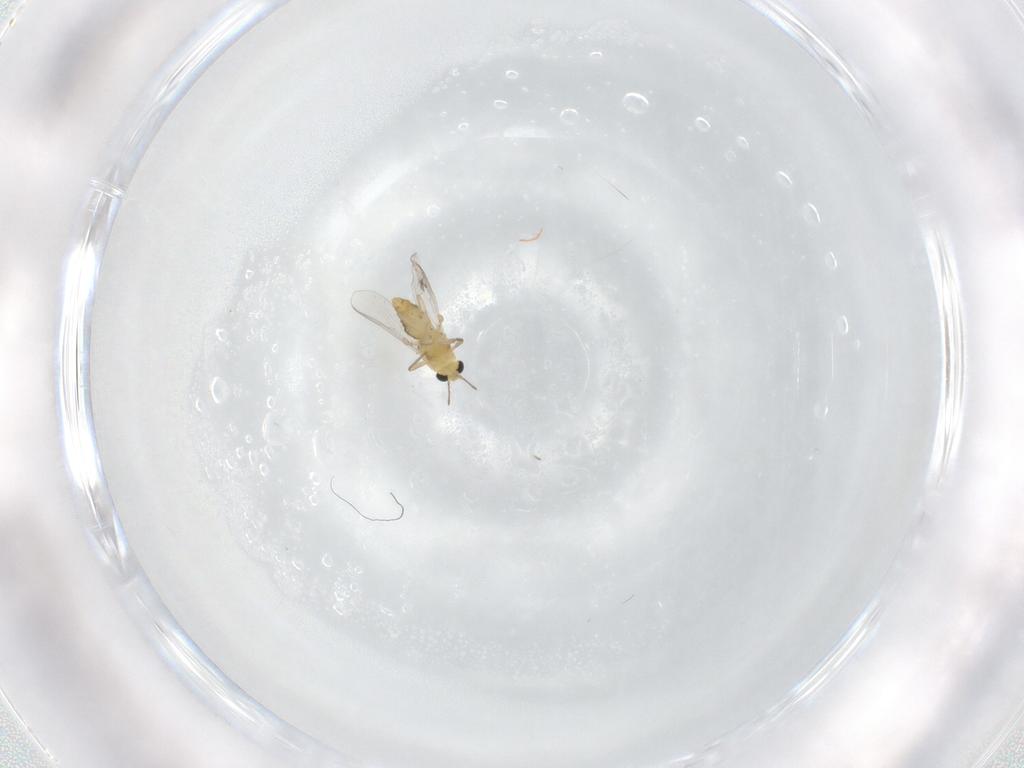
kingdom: Animalia
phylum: Arthropoda
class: Insecta
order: Diptera
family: Dolichopodidae
